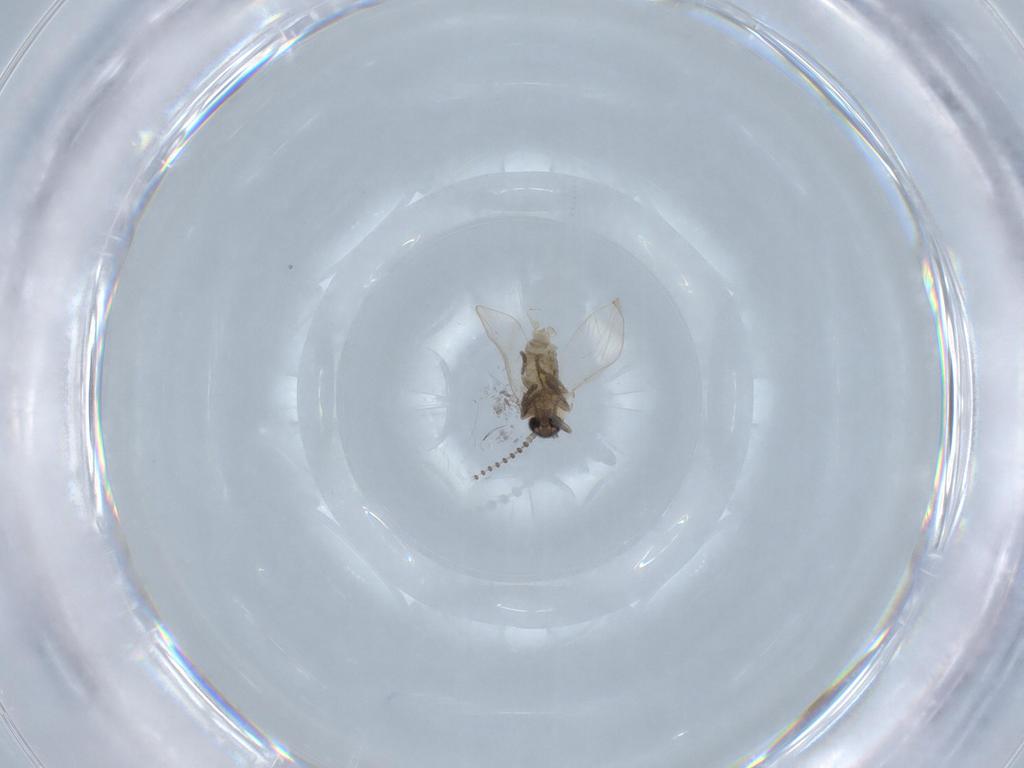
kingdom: Animalia
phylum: Arthropoda
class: Insecta
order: Diptera
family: Psychodidae
